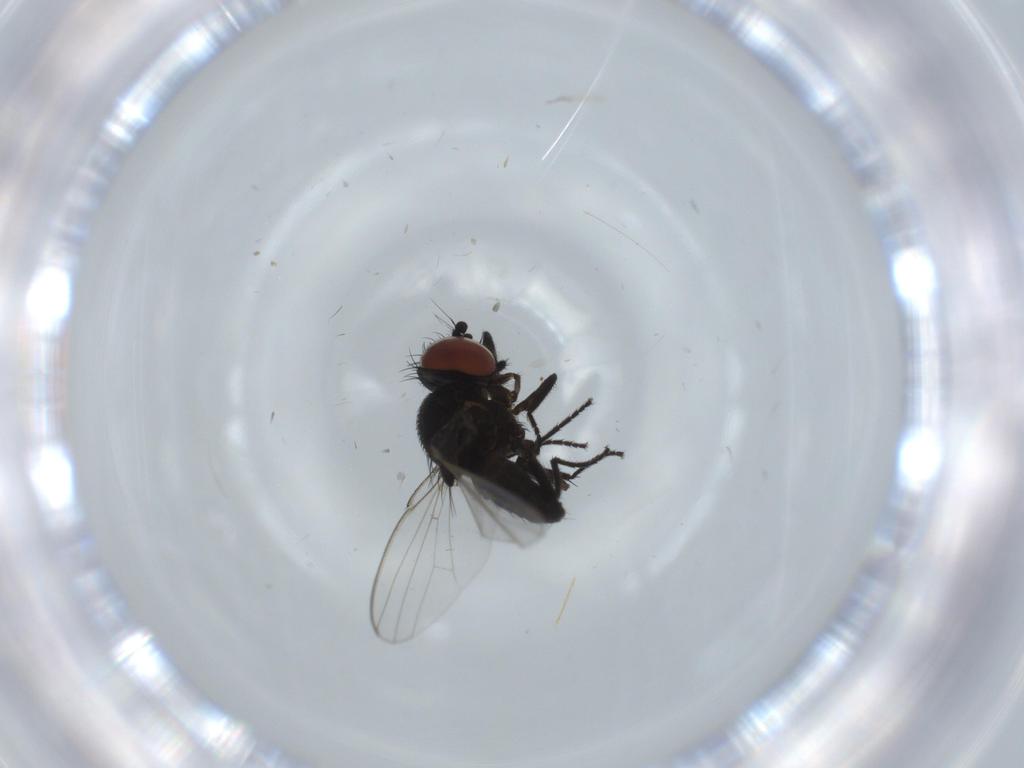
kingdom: Animalia
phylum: Arthropoda
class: Insecta
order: Diptera
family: Milichiidae
